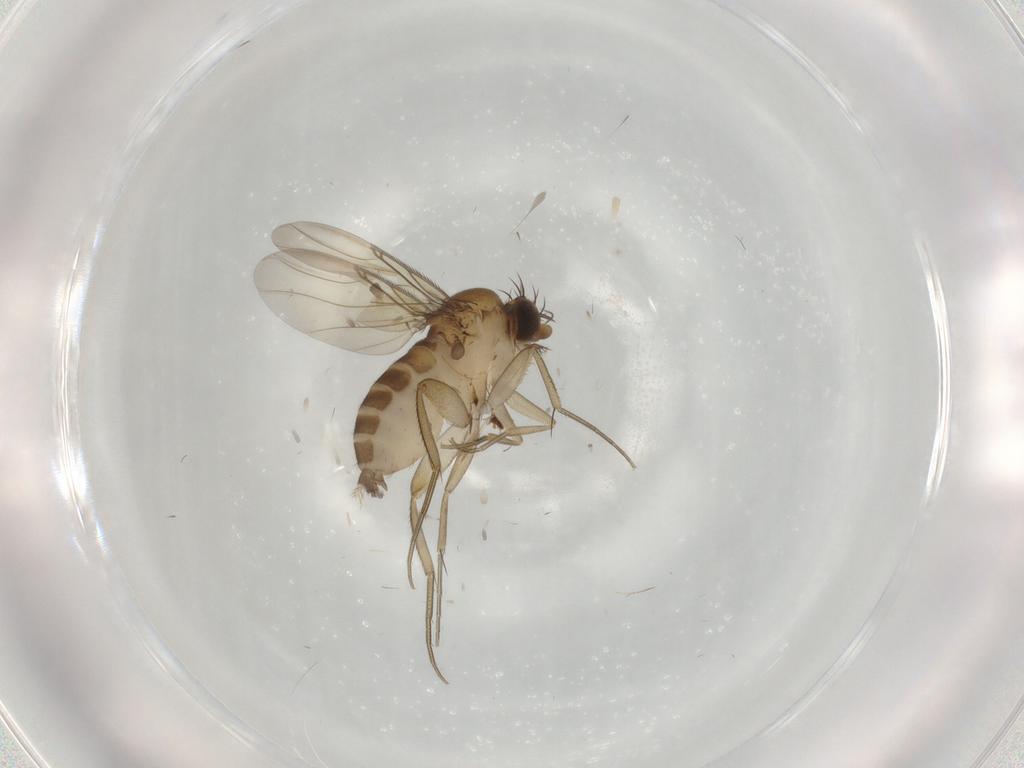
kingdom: Animalia
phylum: Arthropoda
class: Insecta
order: Diptera
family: Phoridae
